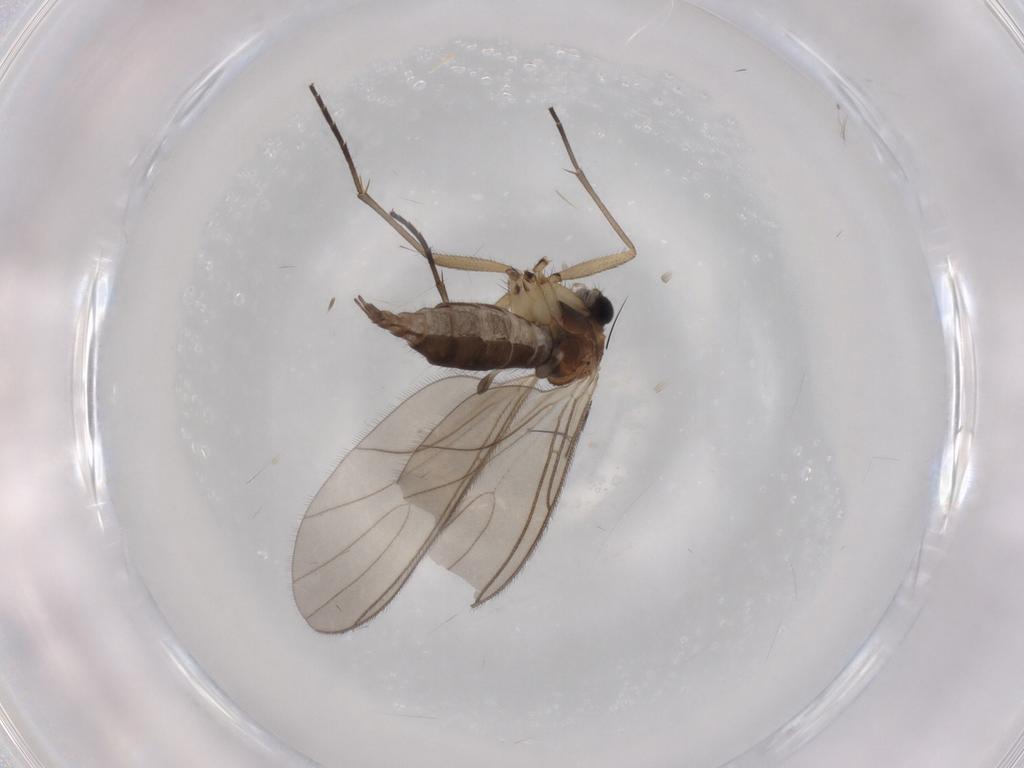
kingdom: Animalia
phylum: Arthropoda
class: Insecta
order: Diptera
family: Sciaridae
